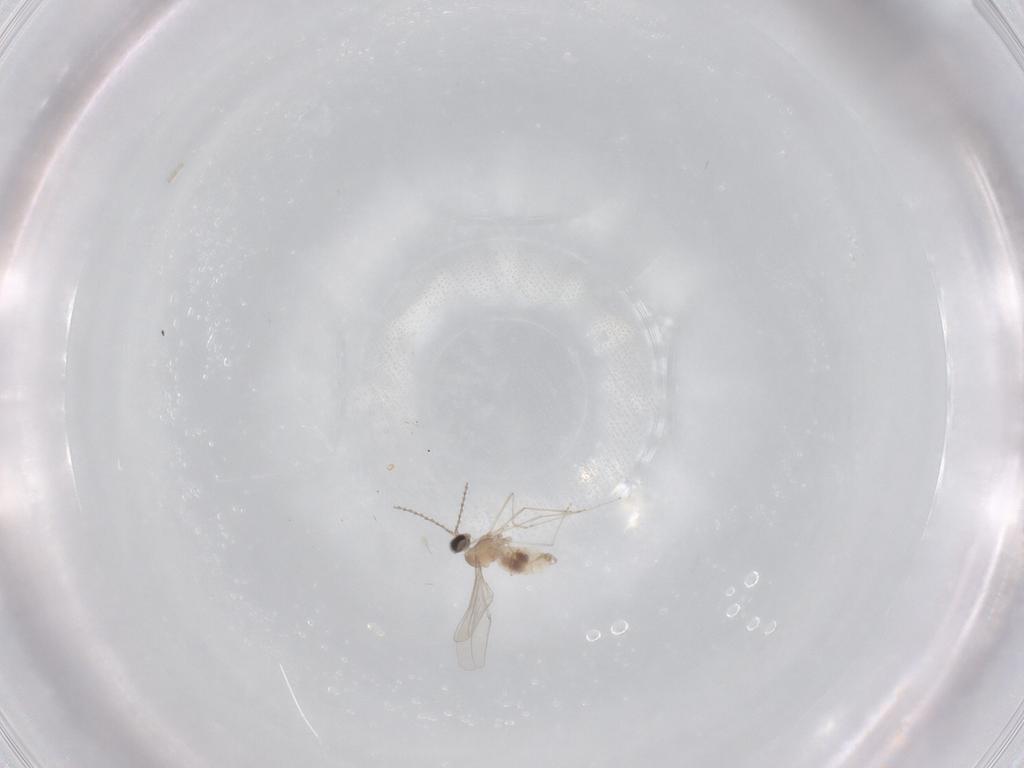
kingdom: Animalia
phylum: Arthropoda
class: Insecta
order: Diptera
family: Cecidomyiidae
